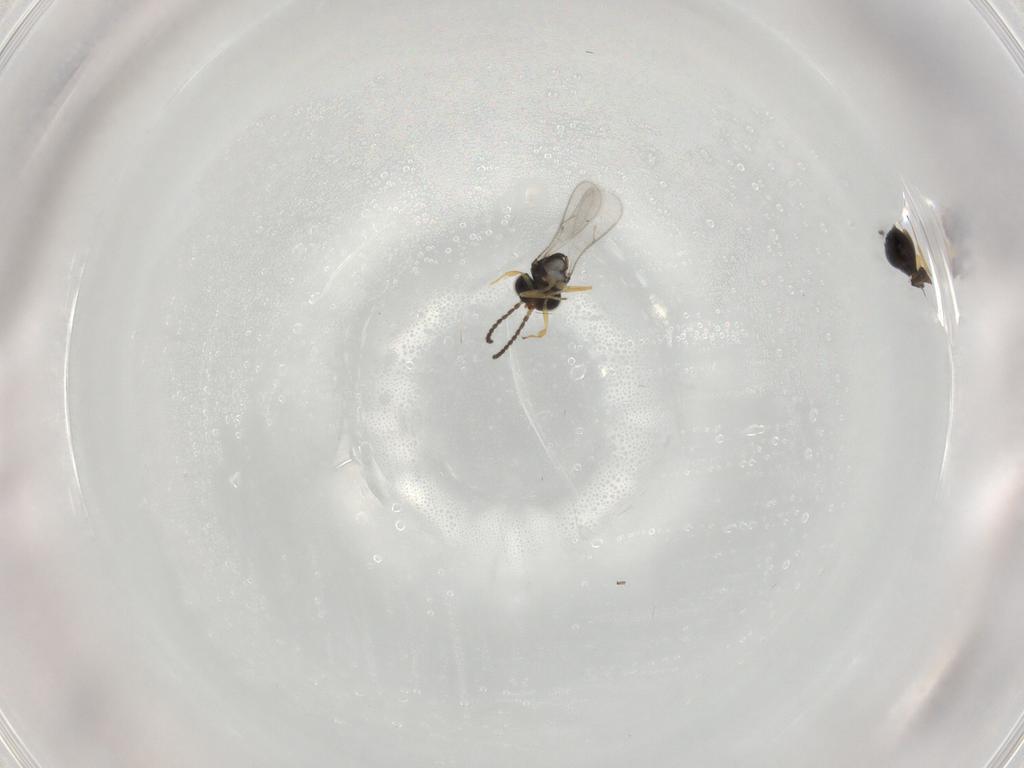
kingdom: Animalia
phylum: Arthropoda
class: Insecta
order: Hymenoptera
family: Scelionidae
